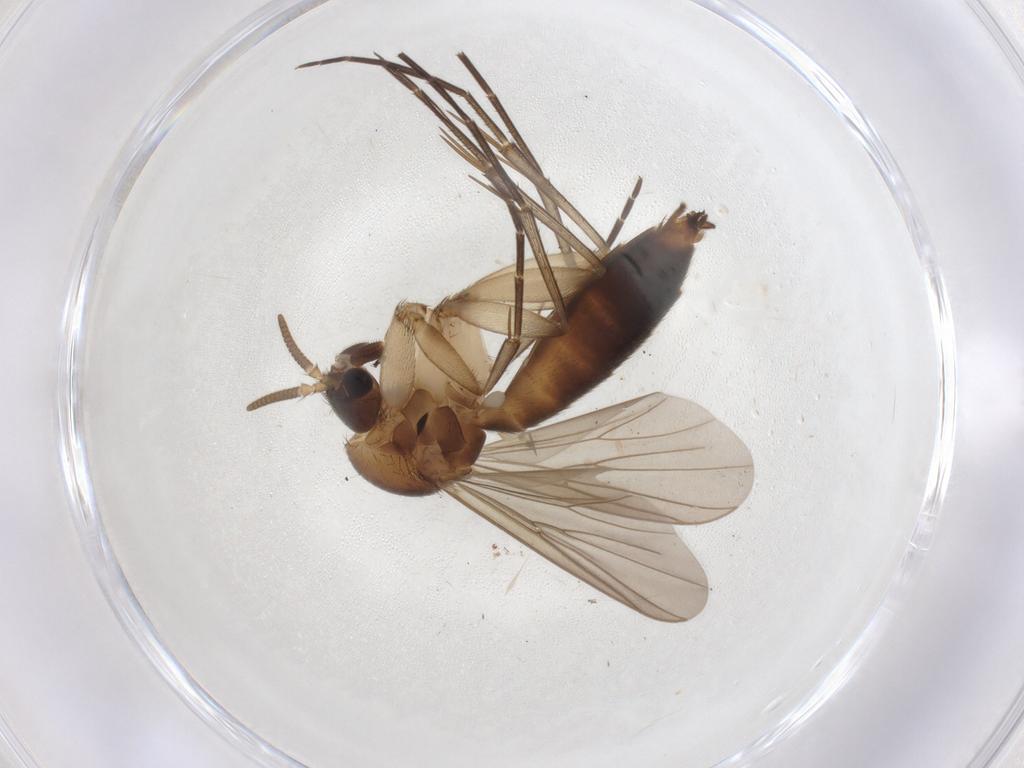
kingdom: Animalia
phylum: Arthropoda
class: Insecta
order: Diptera
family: Mycetophilidae
